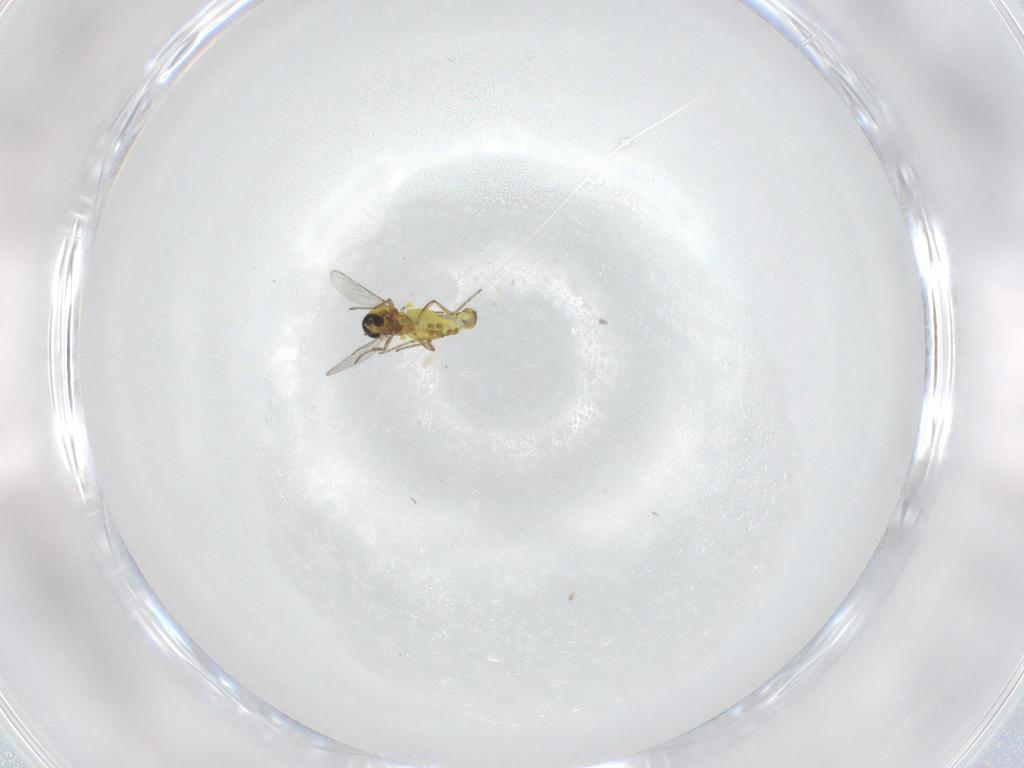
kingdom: Animalia
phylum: Arthropoda
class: Insecta
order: Diptera
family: Ceratopogonidae
